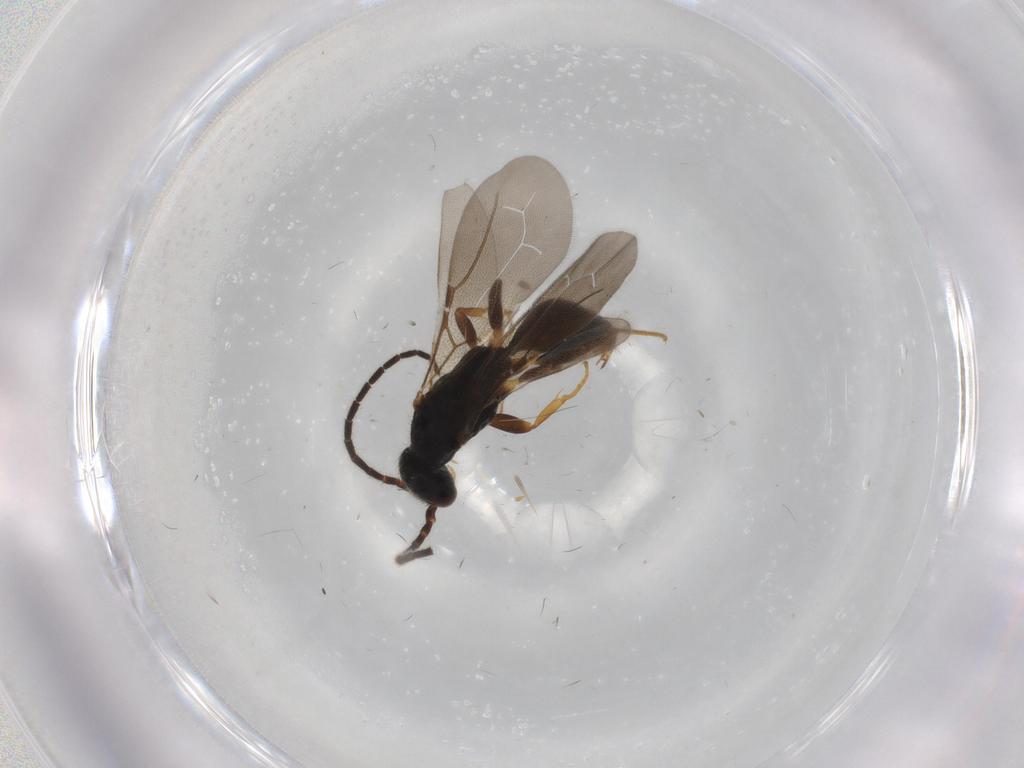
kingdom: Animalia
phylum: Arthropoda
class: Insecta
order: Hymenoptera
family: Bethylidae
